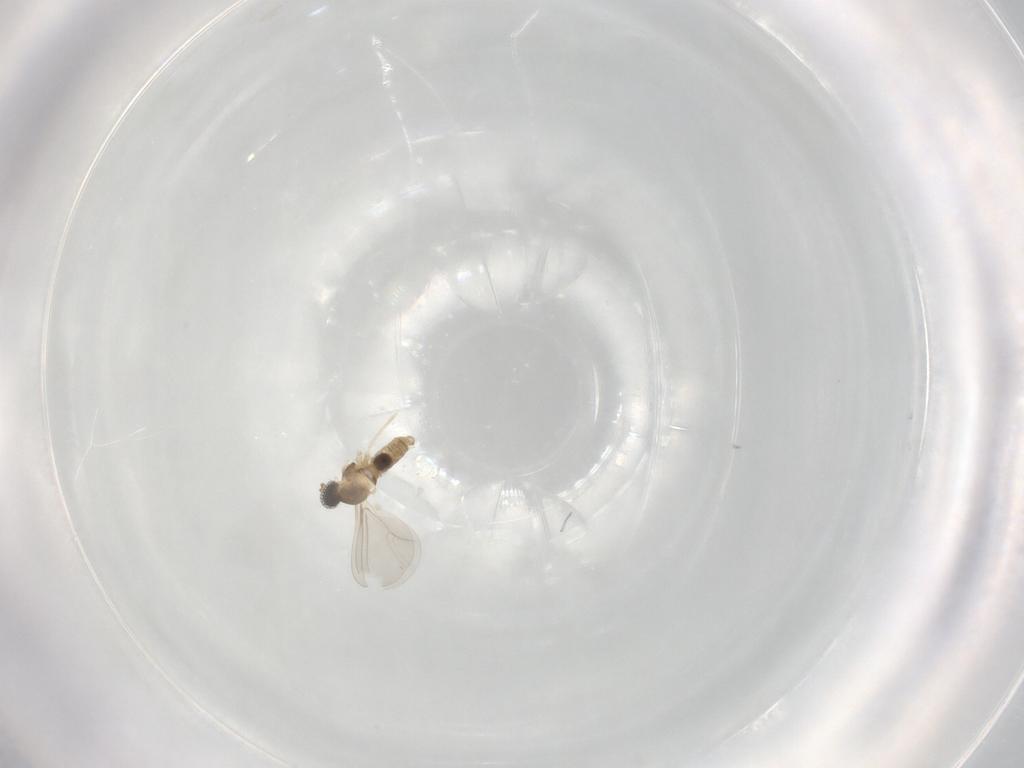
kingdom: Animalia
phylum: Arthropoda
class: Insecta
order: Diptera
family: Cecidomyiidae
